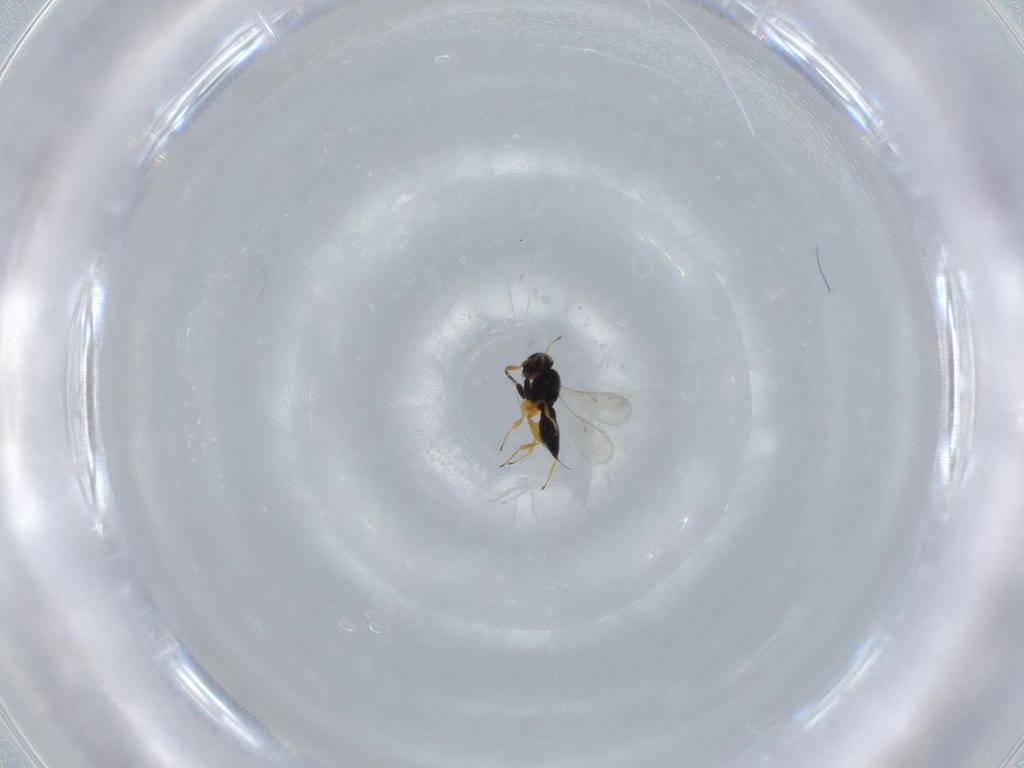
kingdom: Animalia
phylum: Arthropoda
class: Insecta
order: Hymenoptera
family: Scelionidae
